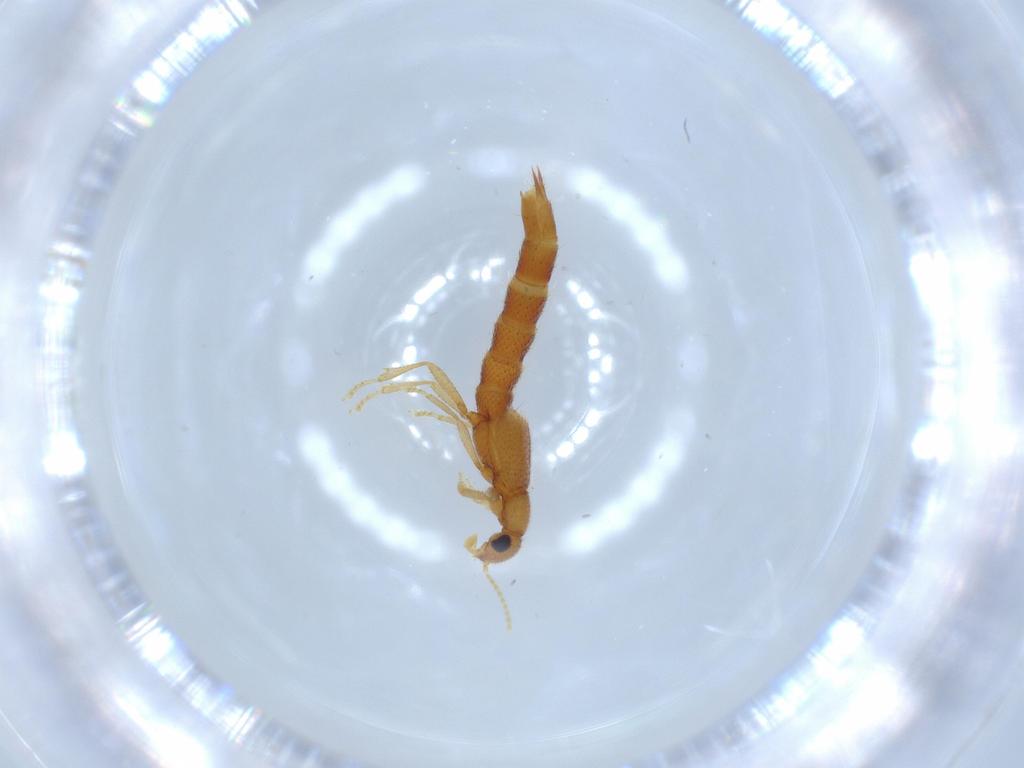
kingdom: Animalia
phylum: Arthropoda
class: Insecta
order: Coleoptera
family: Staphylinidae
